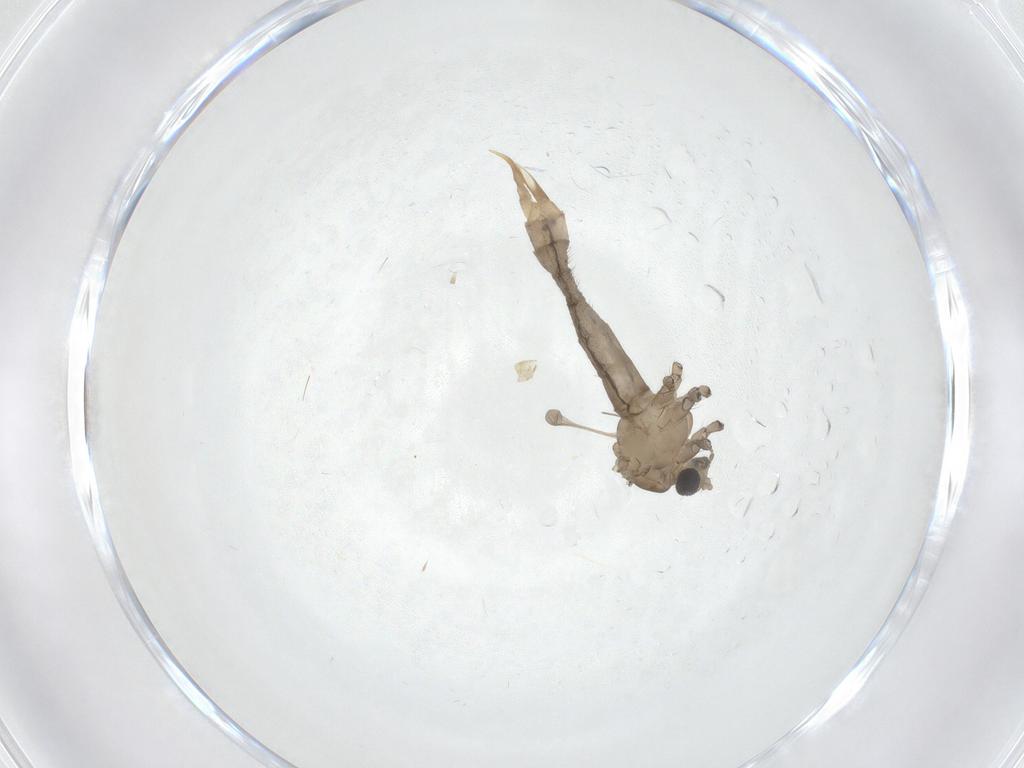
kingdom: Animalia
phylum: Arthropoda
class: Insecta
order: Diptera
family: Limoniidae
